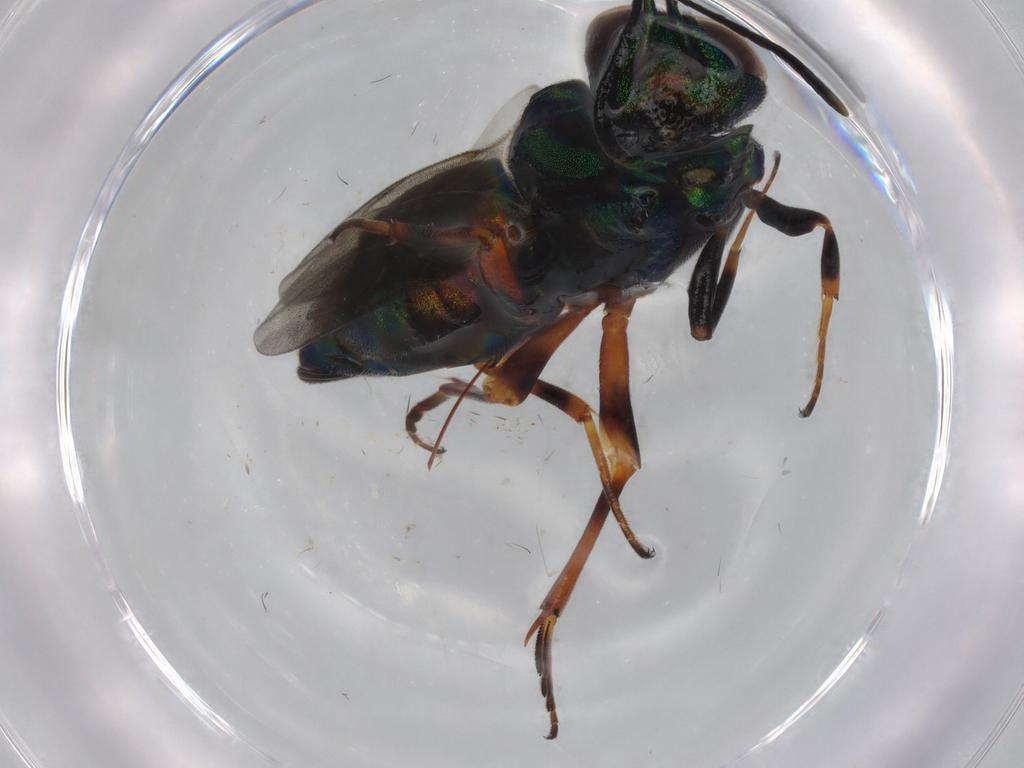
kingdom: Animalia
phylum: Arthropoda
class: Insecta
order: Hymenoptera
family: Eupelmidae
